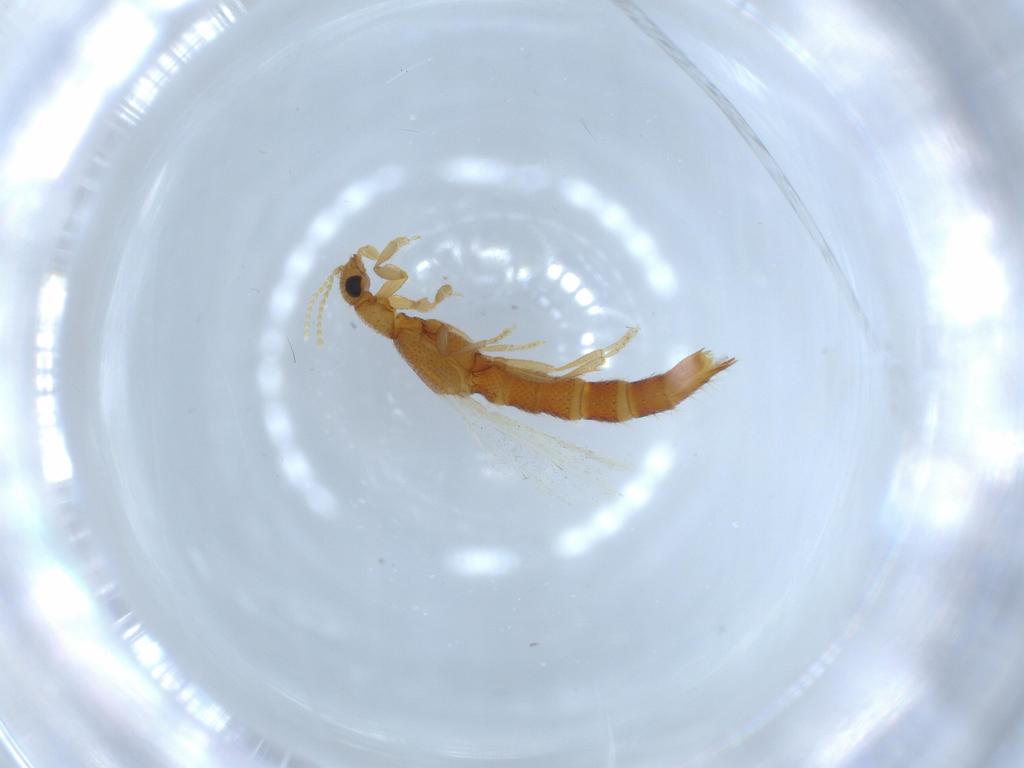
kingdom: Animalia
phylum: Arthropoda
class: Insecta
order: Coleoptera
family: Staphylinidae
